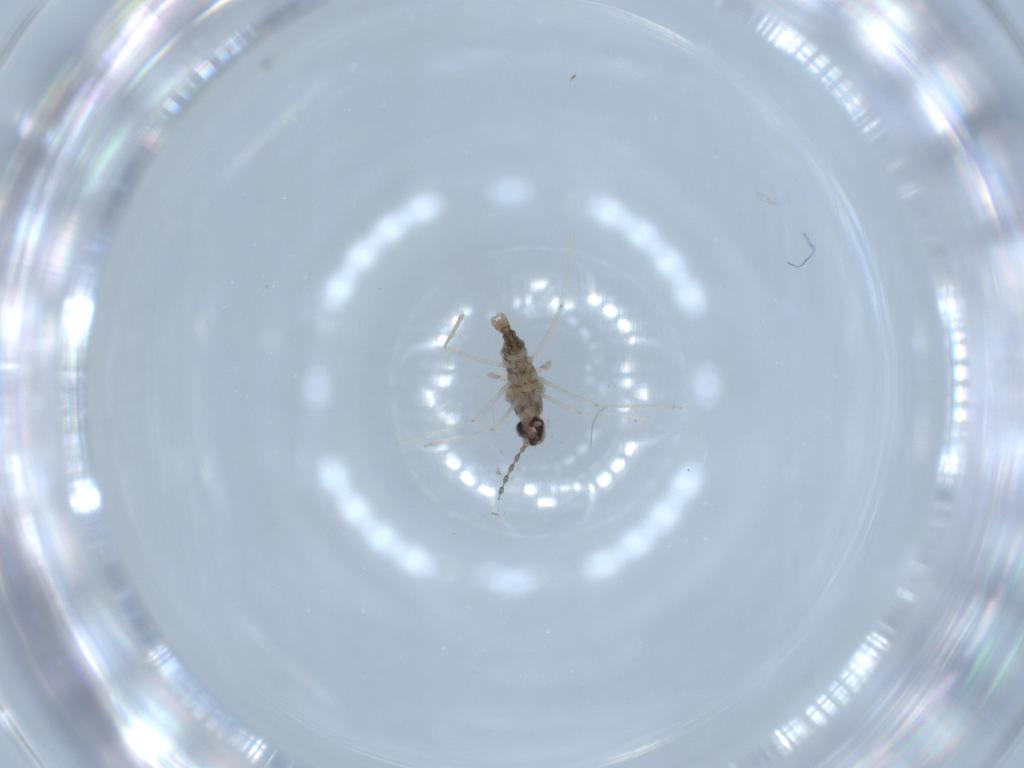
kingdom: Animalia
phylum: Arthropoda
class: Insecta
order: Diptera
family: Cecidomyiidae
